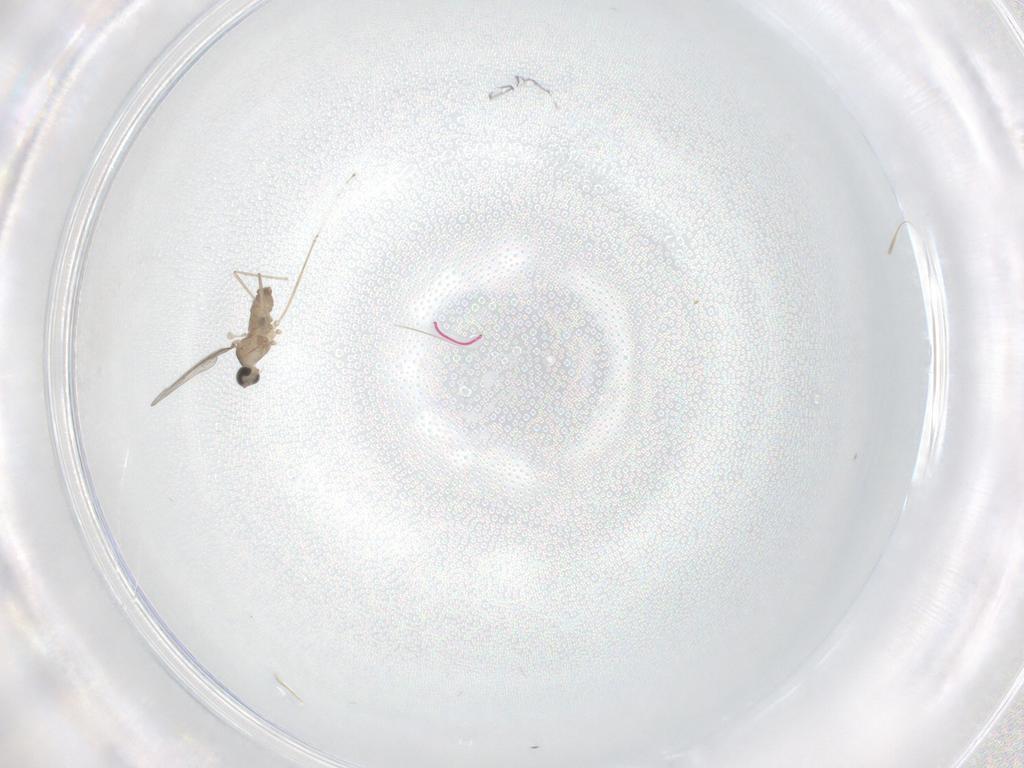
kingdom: Animalia
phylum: Arthropoda
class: Insecta
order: Diptera
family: Cecidomyiidae
